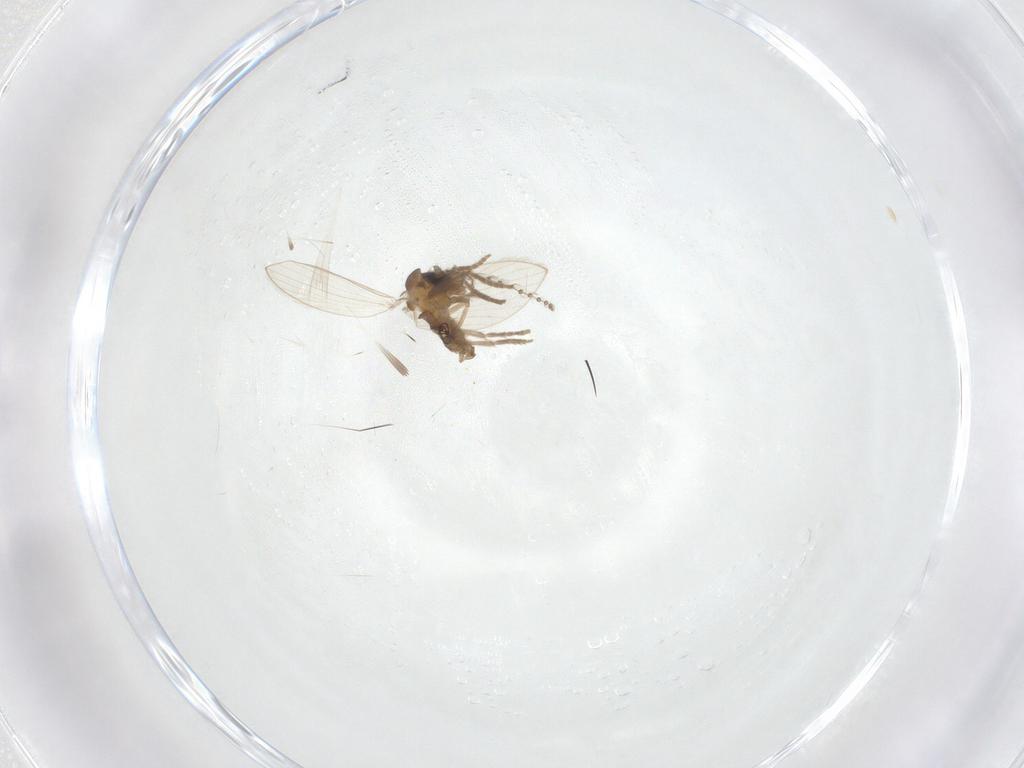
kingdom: Animalia
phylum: Arthropoda
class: Insecta
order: Diptera
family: Psychodidae
